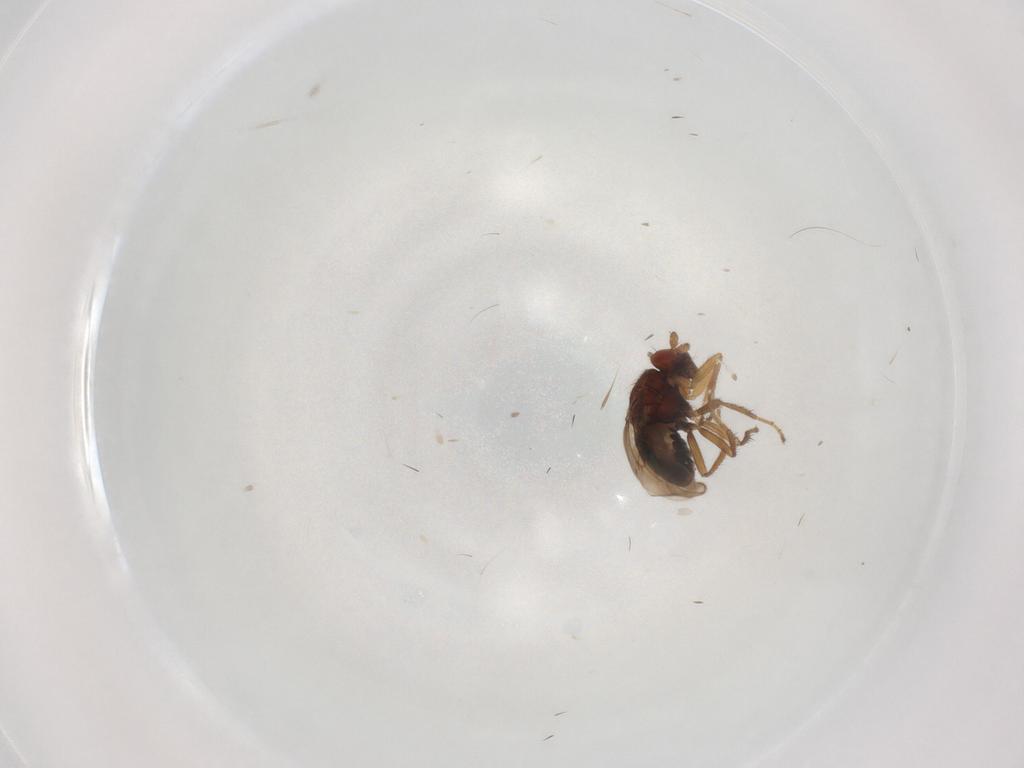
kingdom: Animalia
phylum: Arthropoda
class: Insecta
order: Diptera
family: Sphaeroceridae
